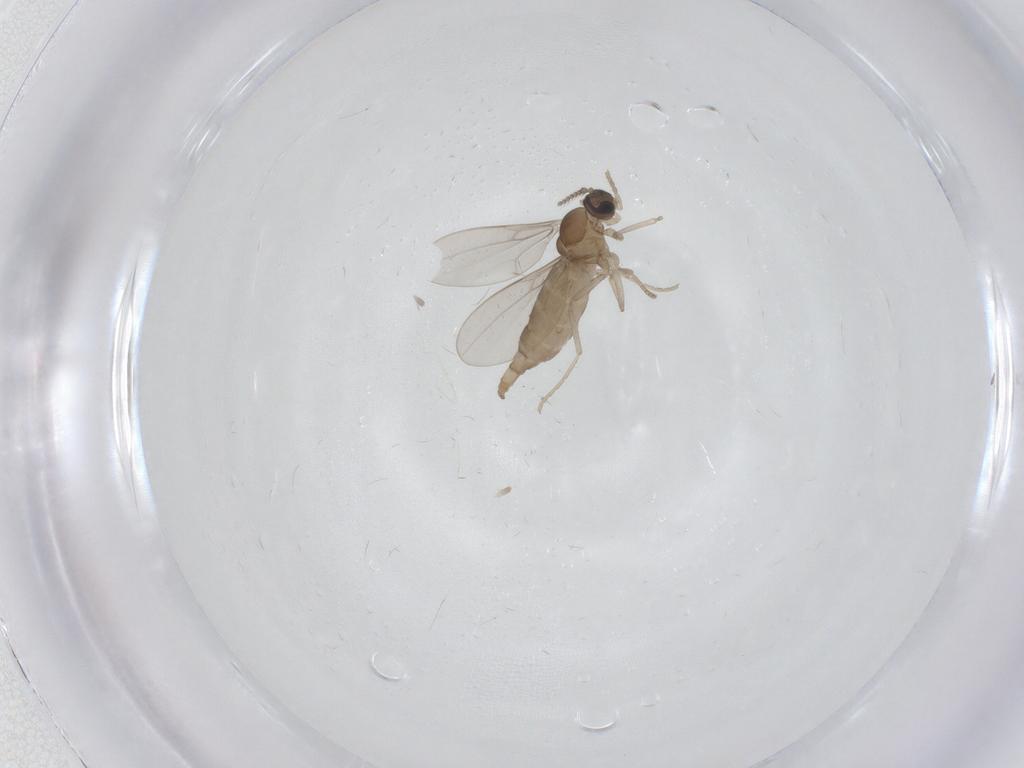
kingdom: Animalia
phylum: Arthropoda
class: Insecta
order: Diptera
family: Cecidomyiidae
